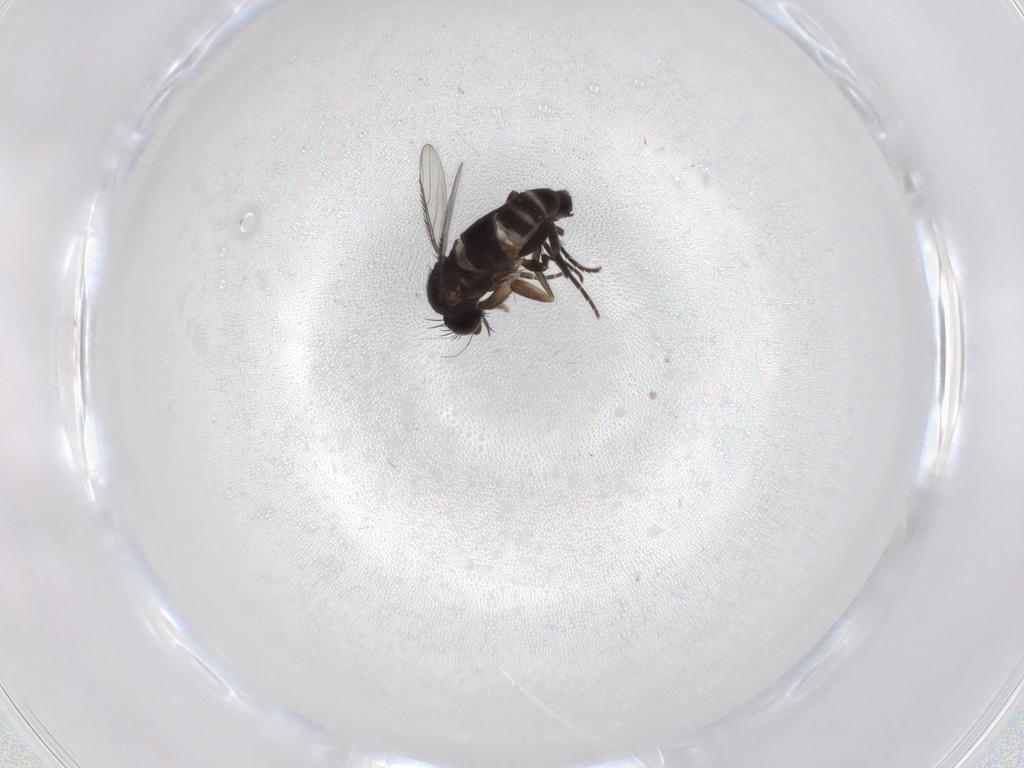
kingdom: Animalia
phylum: Arthropoda
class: Insecta
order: Diptera
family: Phoridae
